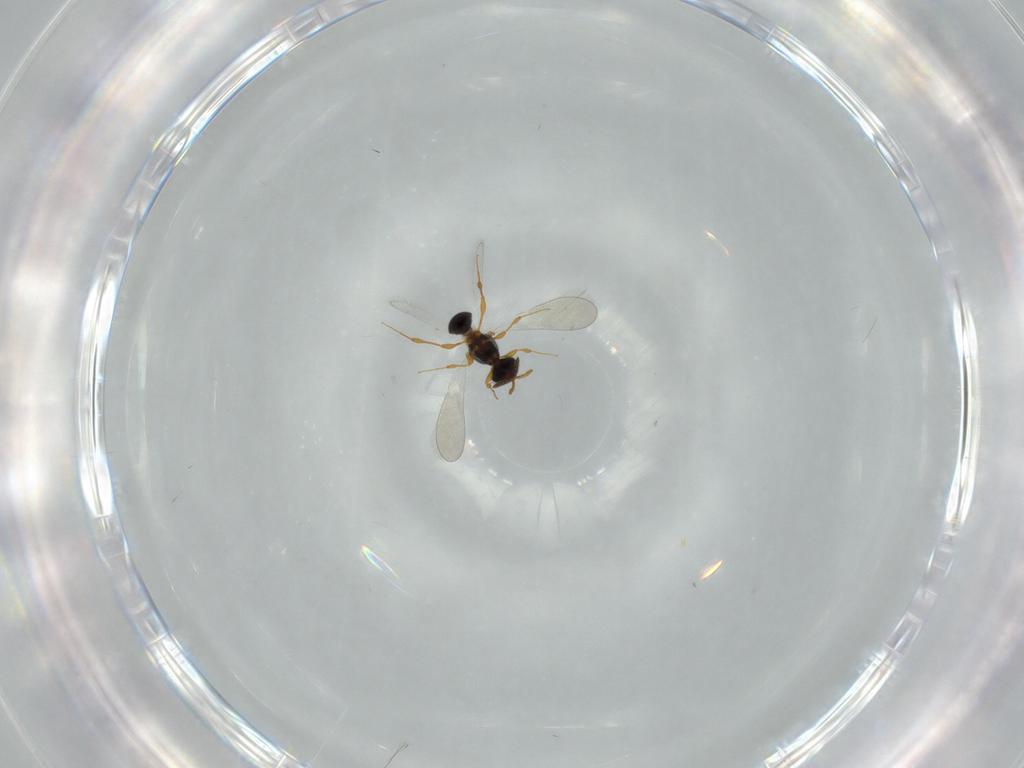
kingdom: Animalia
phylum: Arthropoda
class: Insecta
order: Hymenoptera
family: Platygastridae
